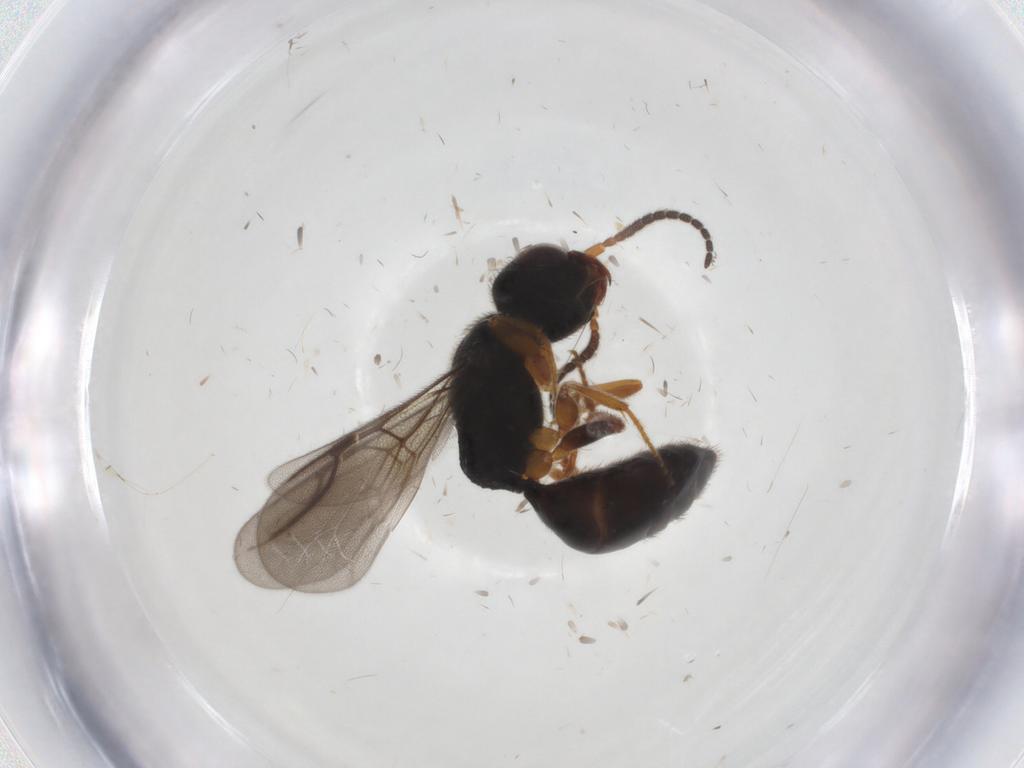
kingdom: Animalia
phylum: Arthropoda
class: Insecta
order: Hymenoptera
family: Bethylidae
